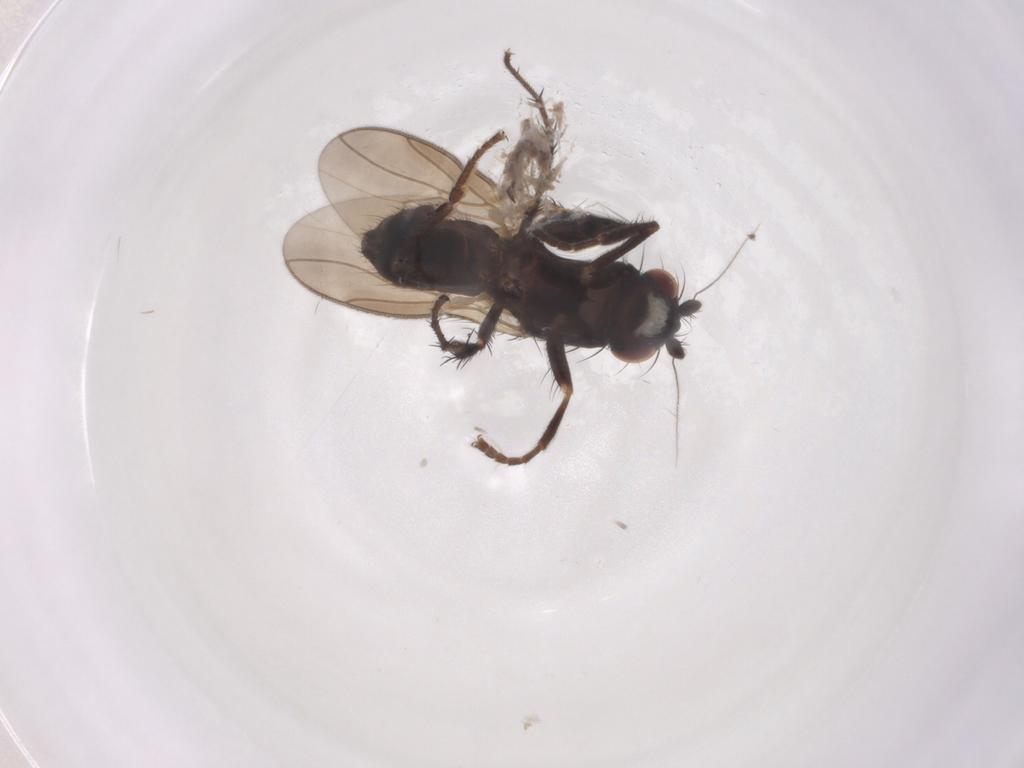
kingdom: Animalia
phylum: Arthropoda
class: Insecta
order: Diptera
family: Sphaeroceridae
